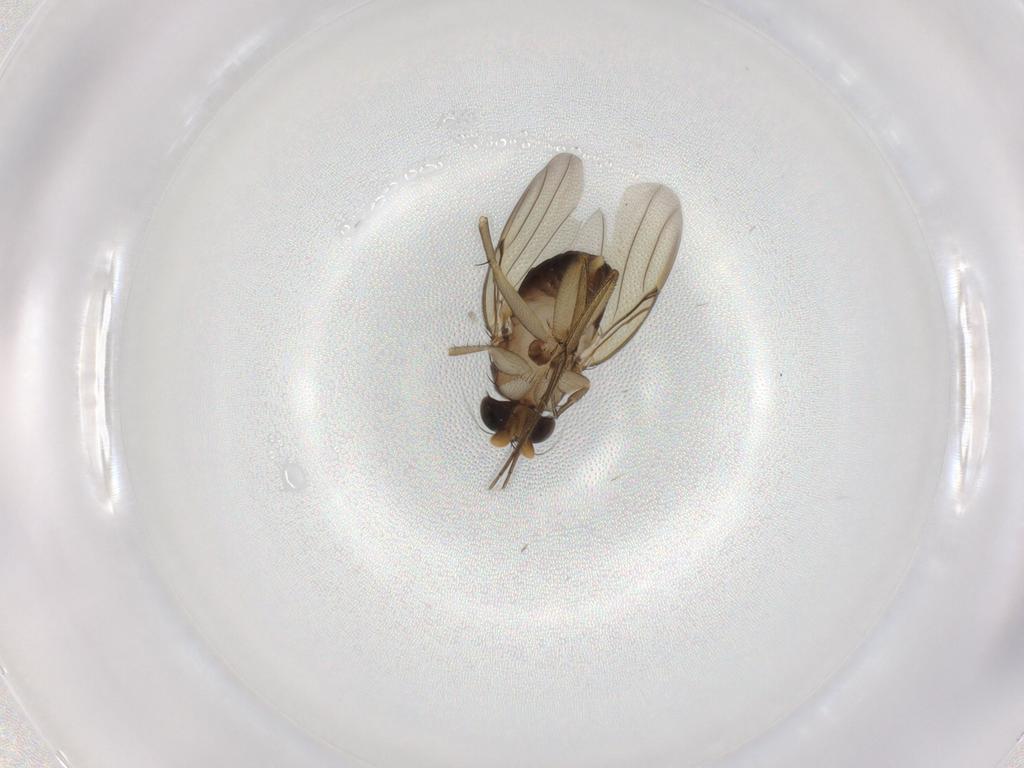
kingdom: Animalia
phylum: Arthropoda
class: Insecta
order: Diptera
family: Phoridae
